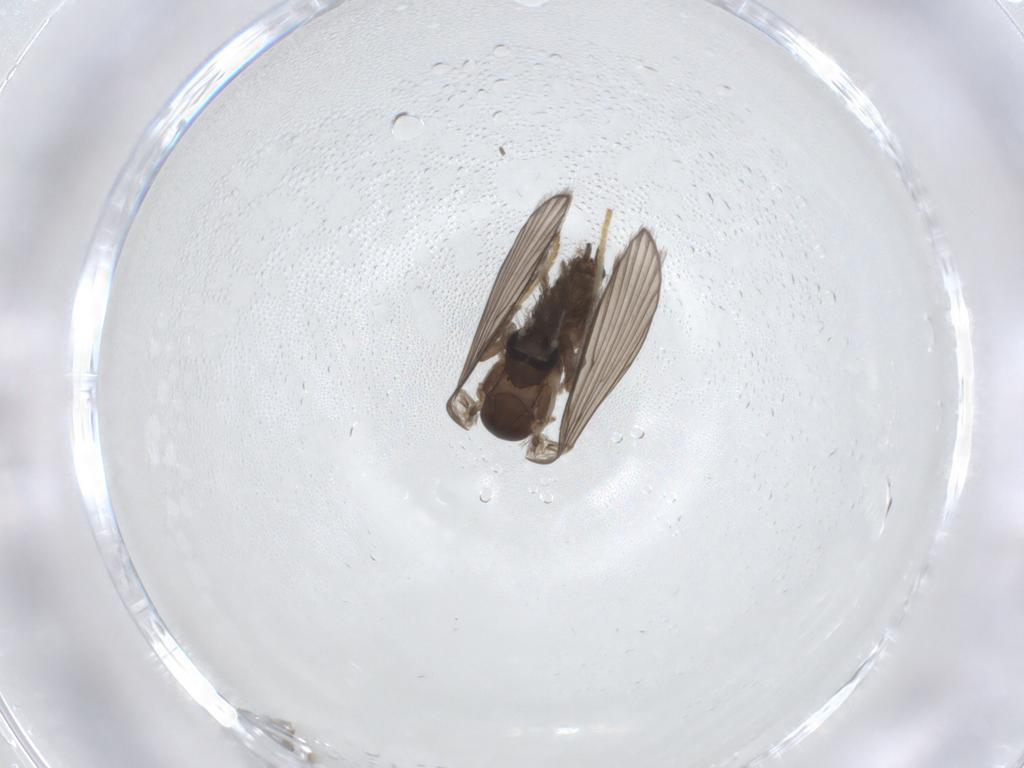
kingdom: Animalia
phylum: Arthropoda
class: Insecta
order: Diptera
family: Psychodidae
